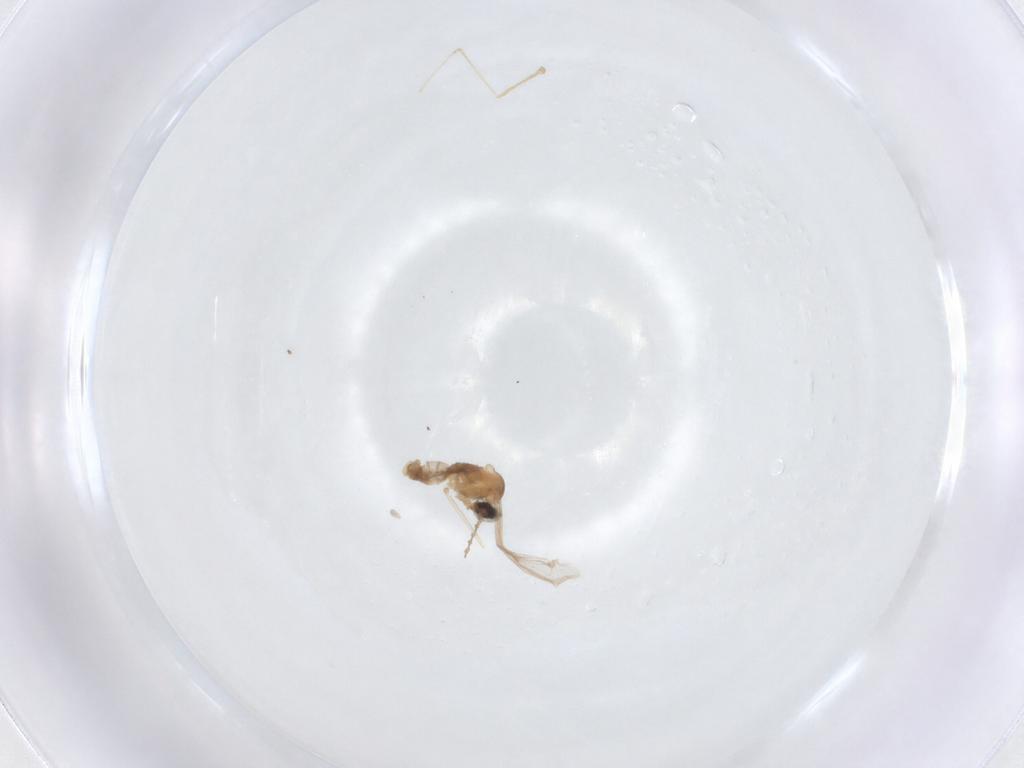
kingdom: Animalia
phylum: Arthropoda
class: Insecta
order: Diptera
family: Cecidomyiidae
